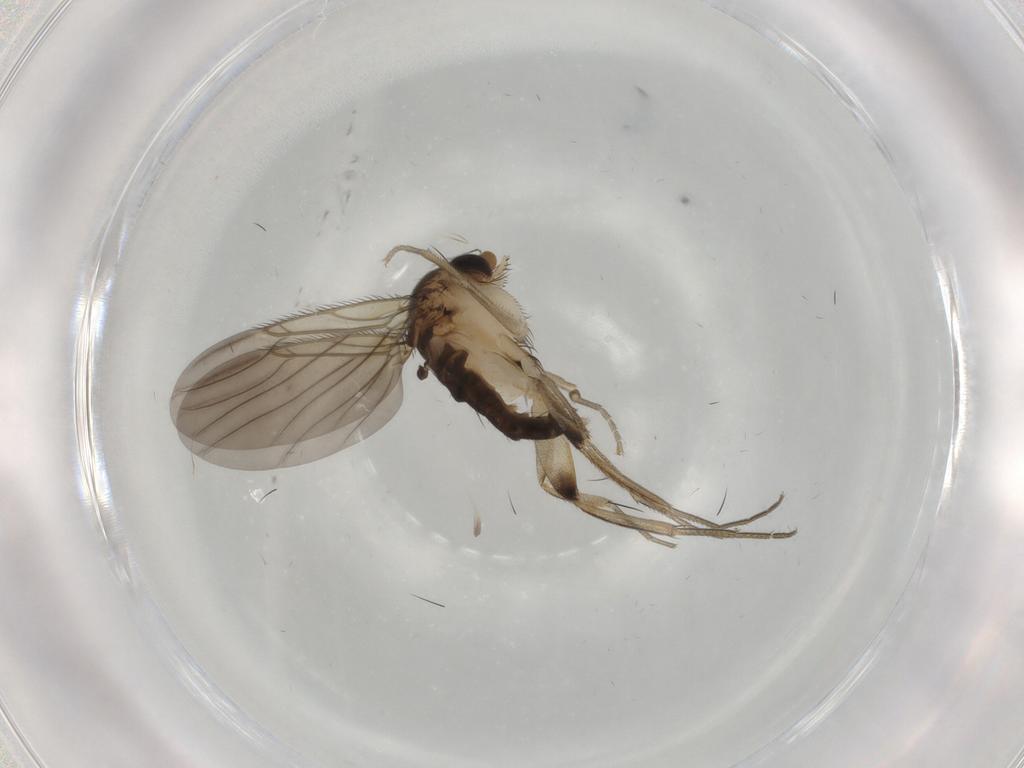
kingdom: Animalia
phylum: Arthropoda
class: Insecta
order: Diptera
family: Phoridae
